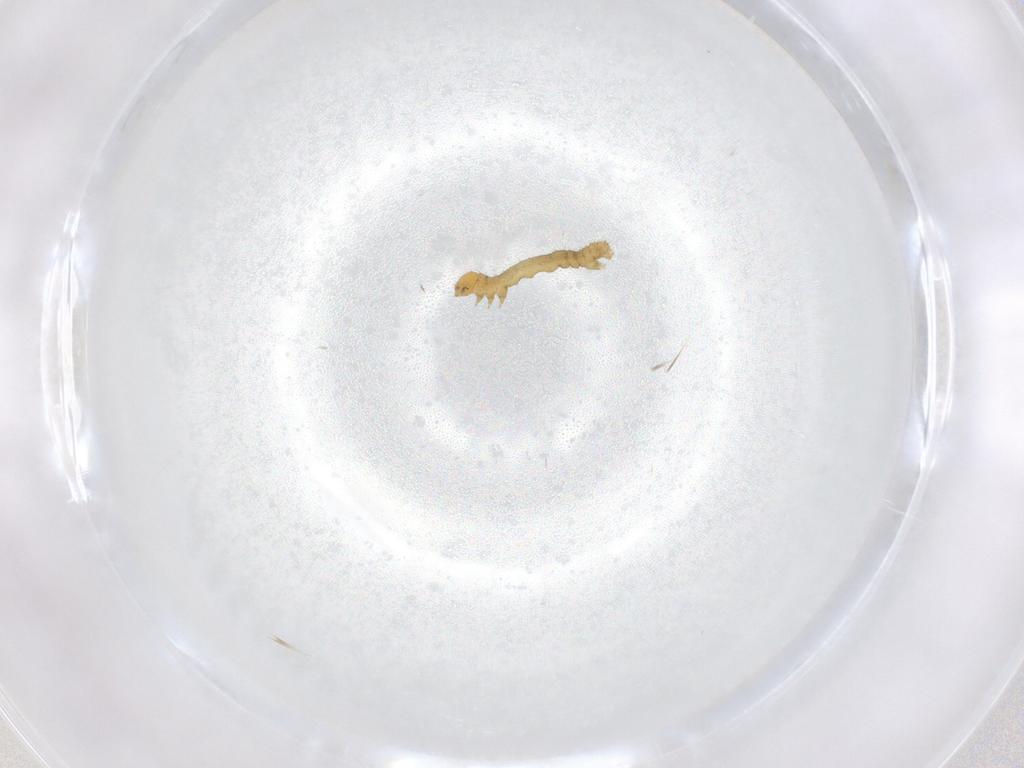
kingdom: Animalia
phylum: Arthropoda
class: Insecta
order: Lepidoptera
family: Geometridae
